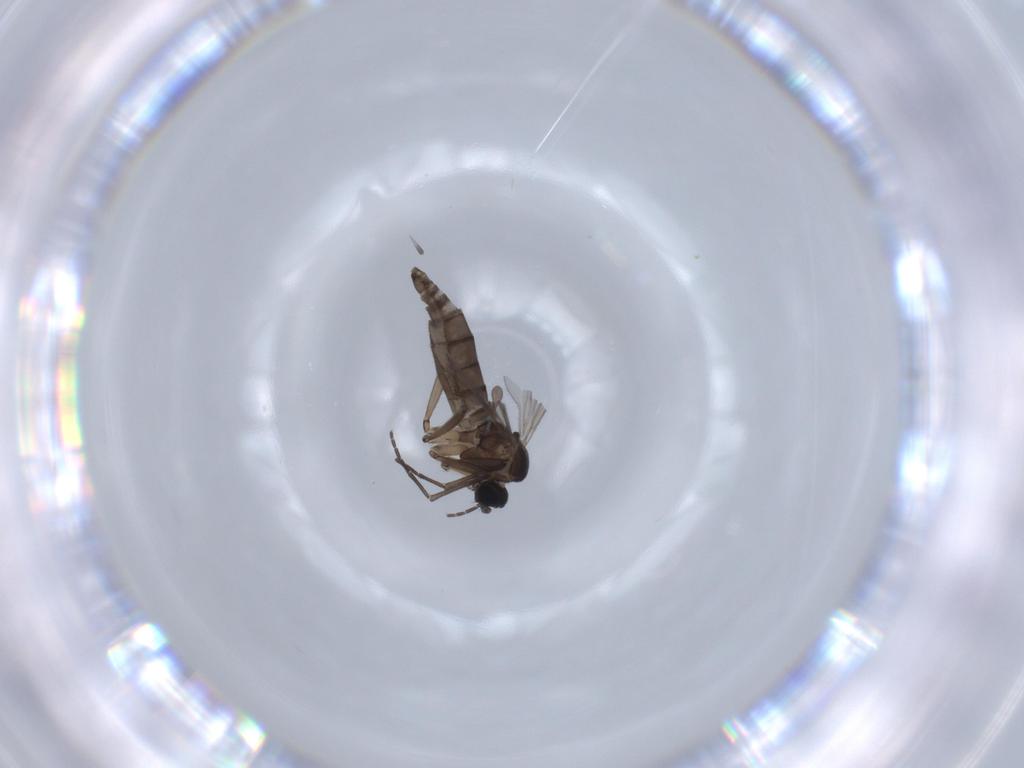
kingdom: Animalia
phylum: Arthropoda
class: Insecta
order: Diptera
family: Sciaridae
